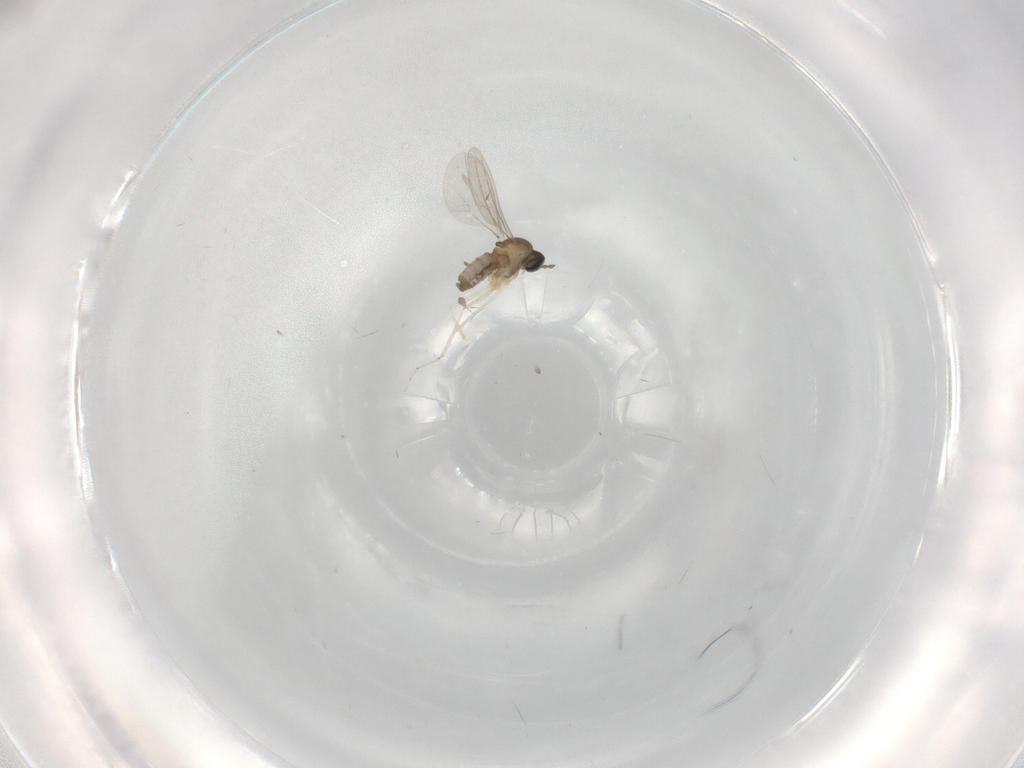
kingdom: Animalia
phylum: Arthropoda
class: Insecta
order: Diptera
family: Cecidomyiidae
